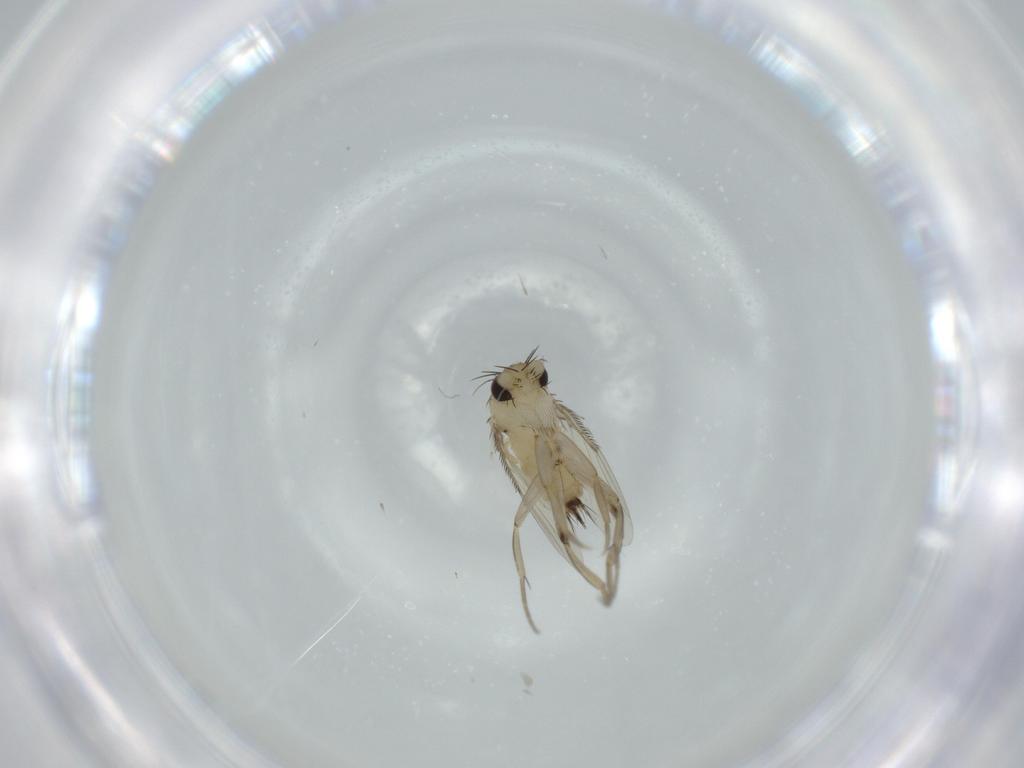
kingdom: Animalia
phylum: Arthropoda
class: Insecta
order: Diptera
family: Phoridae
